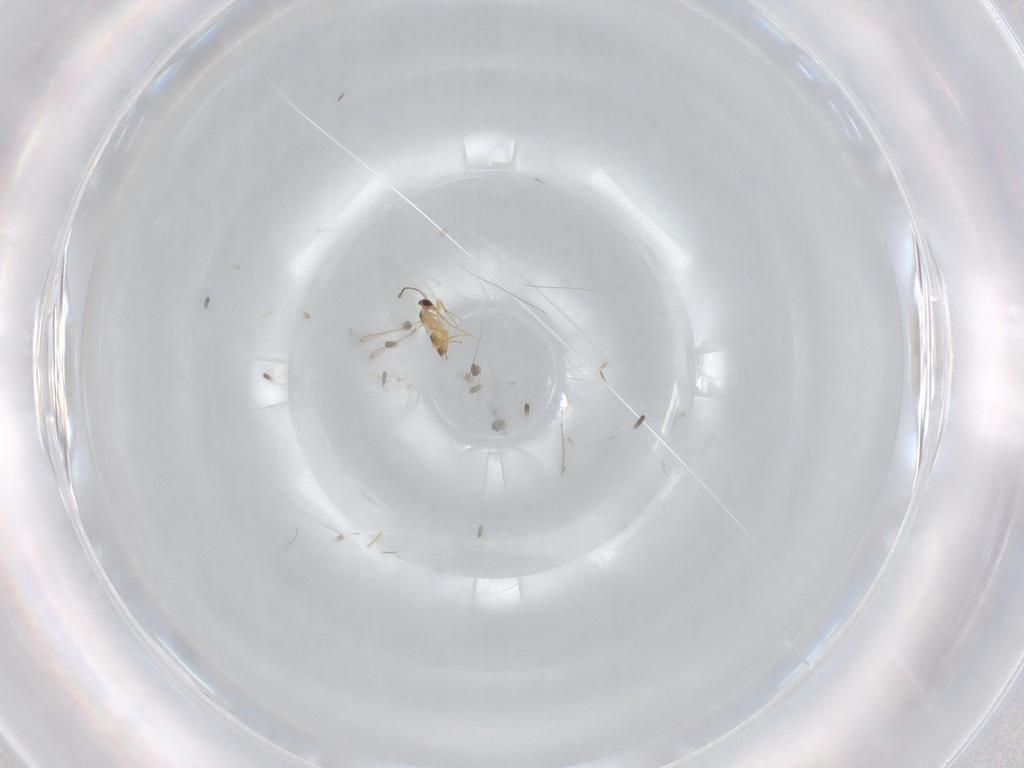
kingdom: Animalia
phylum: Arthropoda
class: Insecta
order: Hymenoptera
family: Mymaridae
